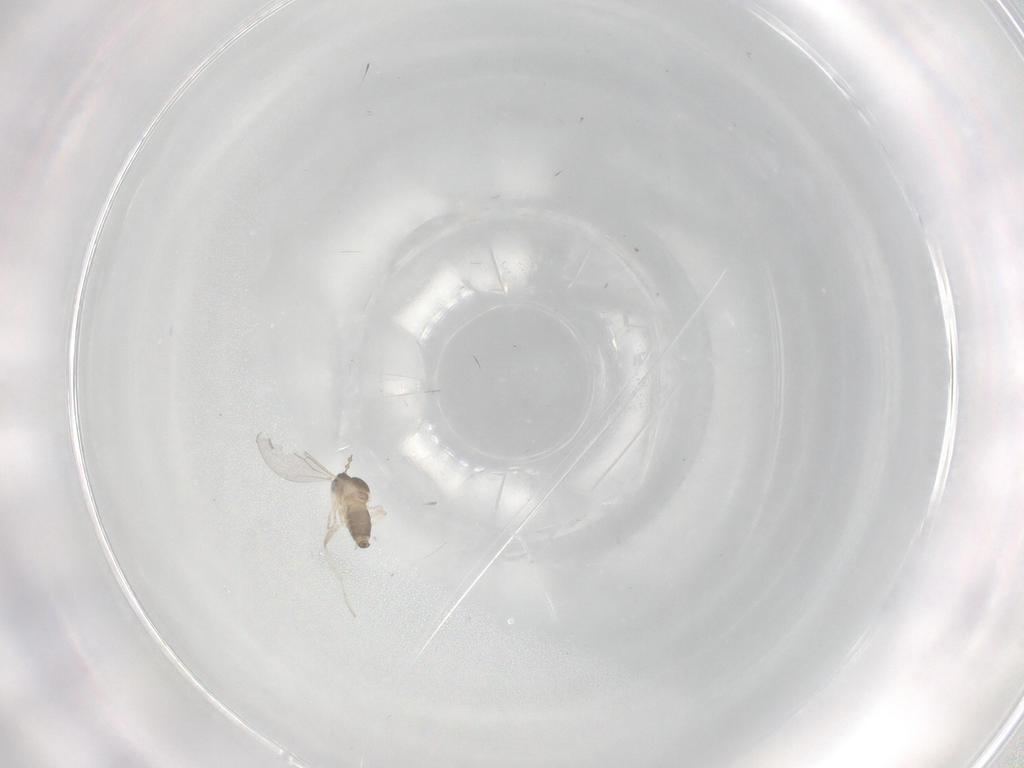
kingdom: Animalia
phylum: Arthropoda
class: Insecta
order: Diptera
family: Cecidomyiidae
